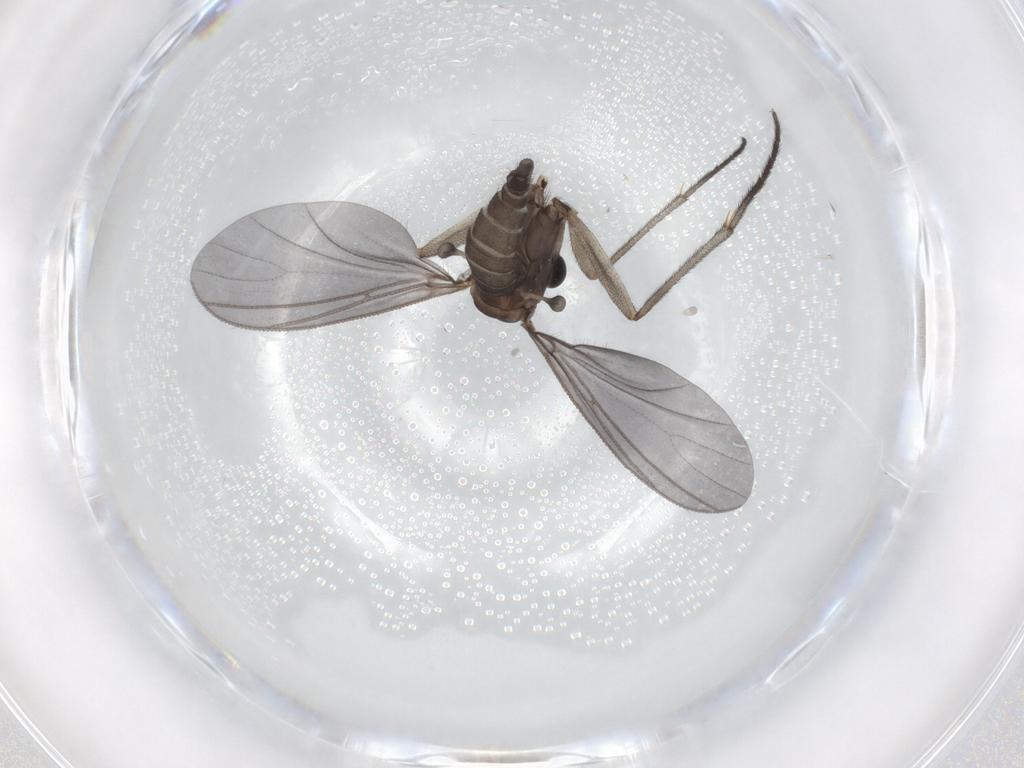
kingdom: Animalia
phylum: Arthropoda
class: Insecta
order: Diptera
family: Sciaridae
